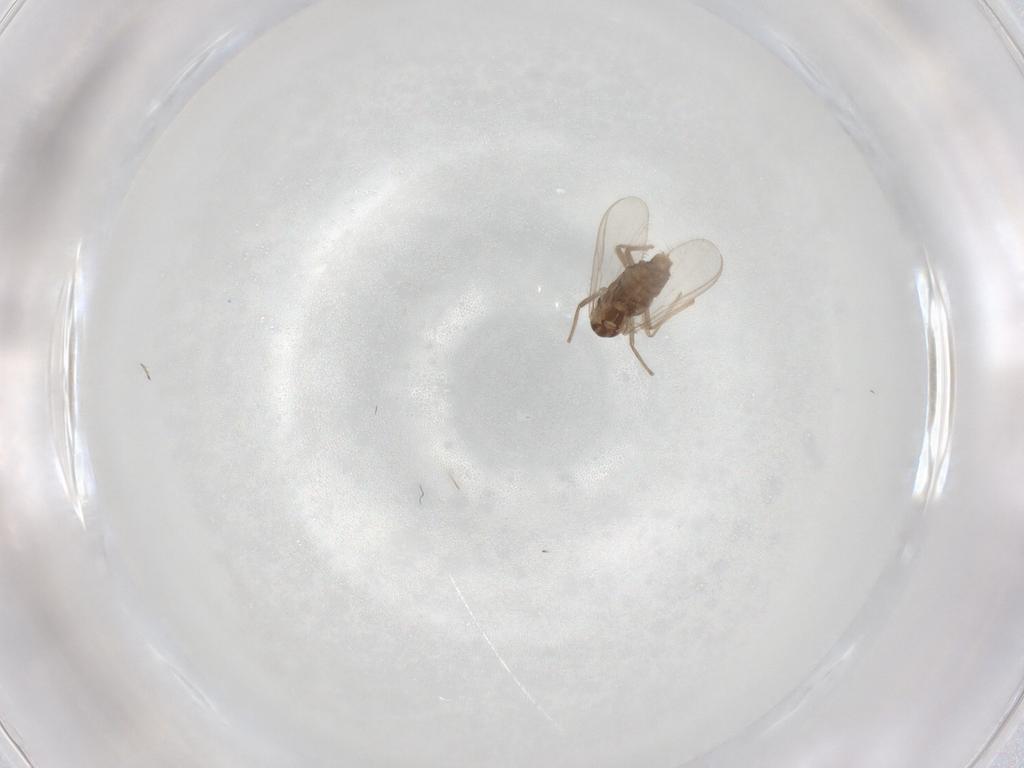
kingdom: Animalia
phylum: Arthropoda
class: Insecta
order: Diptera
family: Chironomidae
